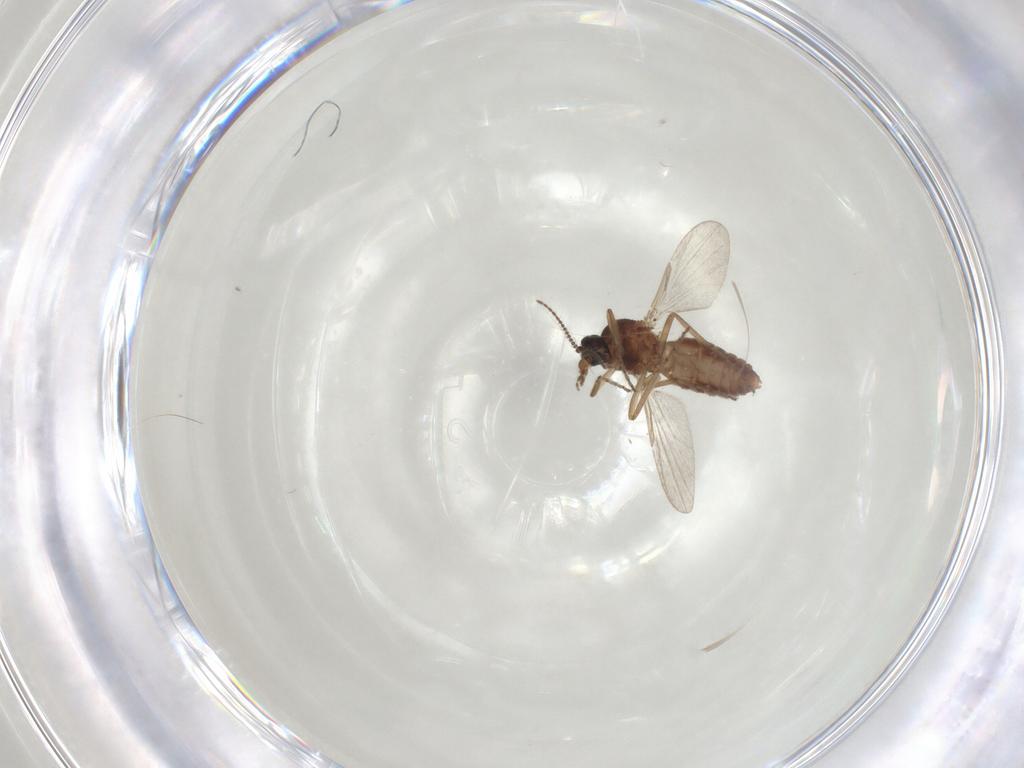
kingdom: Animalia
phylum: Arthropoda
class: Insecta
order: Diptera
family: Ceratopogonidae
